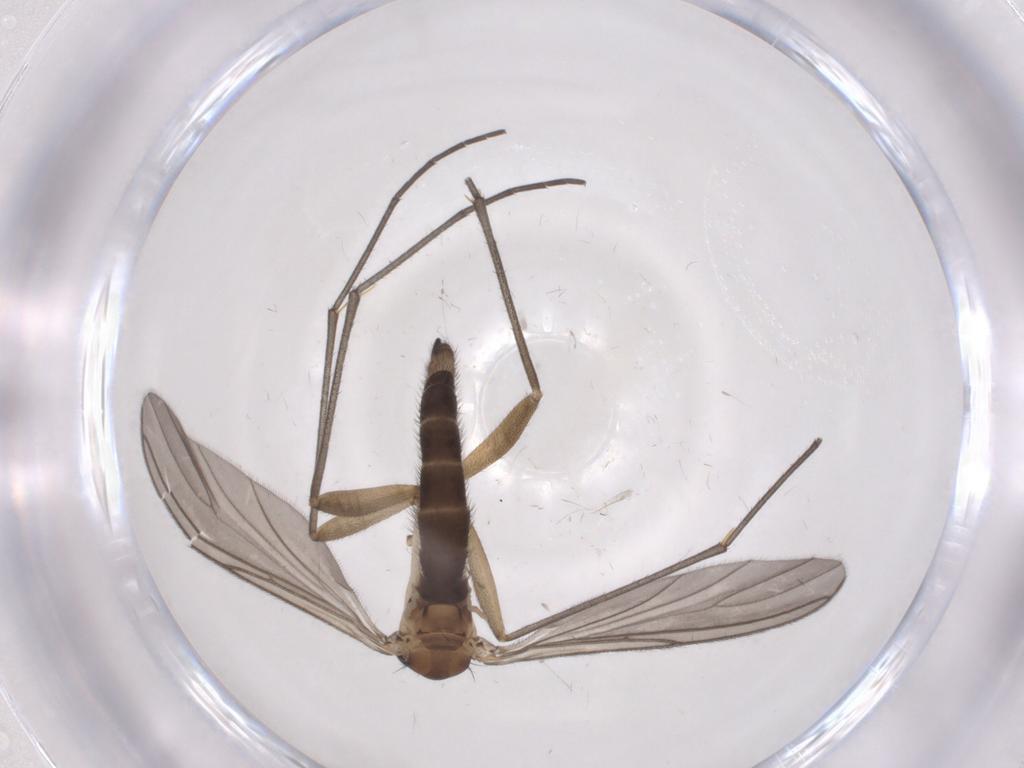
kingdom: Animalia
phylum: Arthropoda
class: Insecta
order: Diptera
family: Sciaridae
